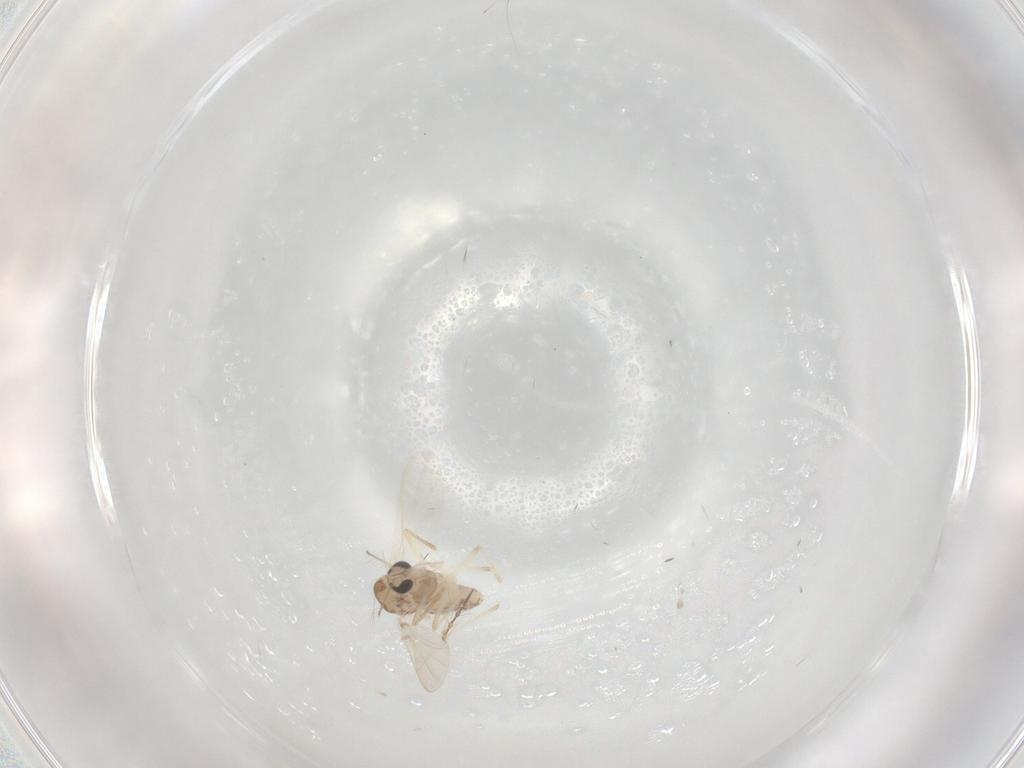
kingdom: Animalia
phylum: Arthropoda
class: Insecta
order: Diptera
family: Chironomidae
